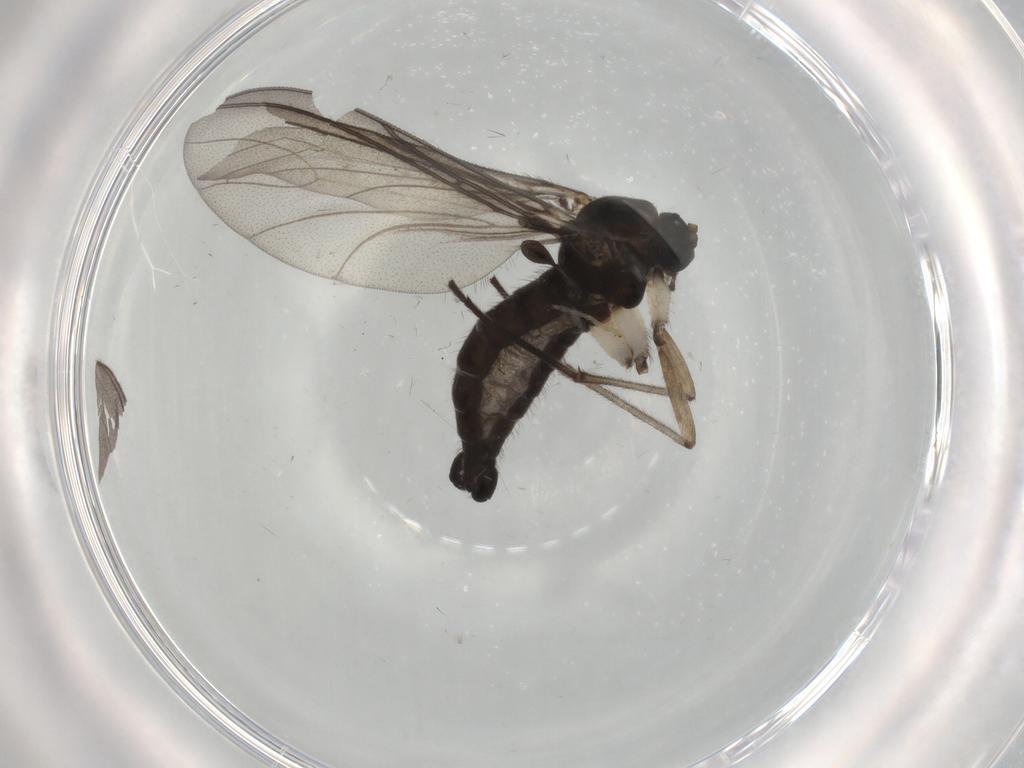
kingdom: Animalia
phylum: Arthropoda
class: Insecta
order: Diptera
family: Sciaridae
